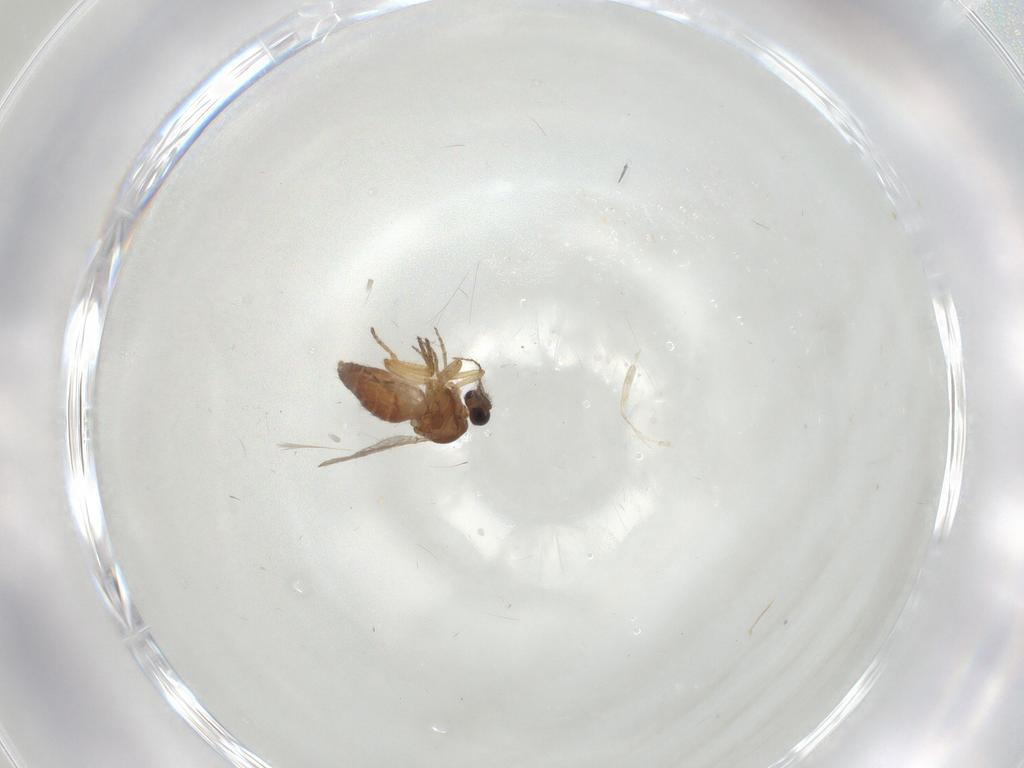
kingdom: Animalia
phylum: Arthropoda
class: Insecta
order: Diptera
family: Ceratopogonidae
